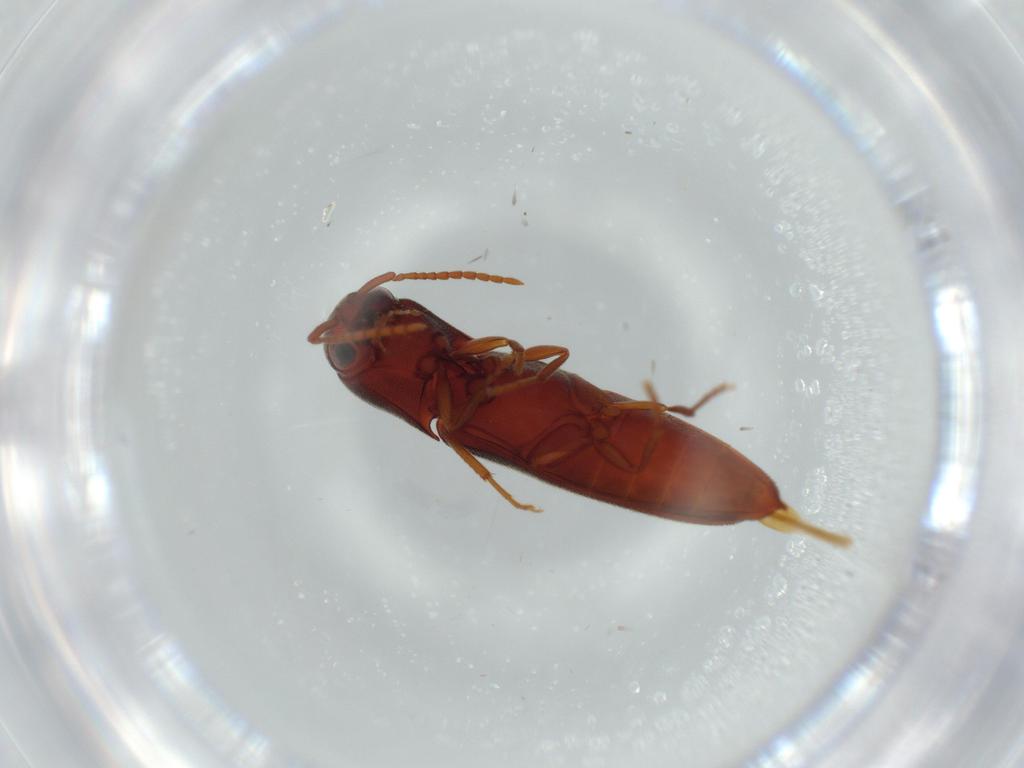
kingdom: Animalia
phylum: Arthropoda
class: Insecta
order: Coleoptera
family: Eucnemidae
